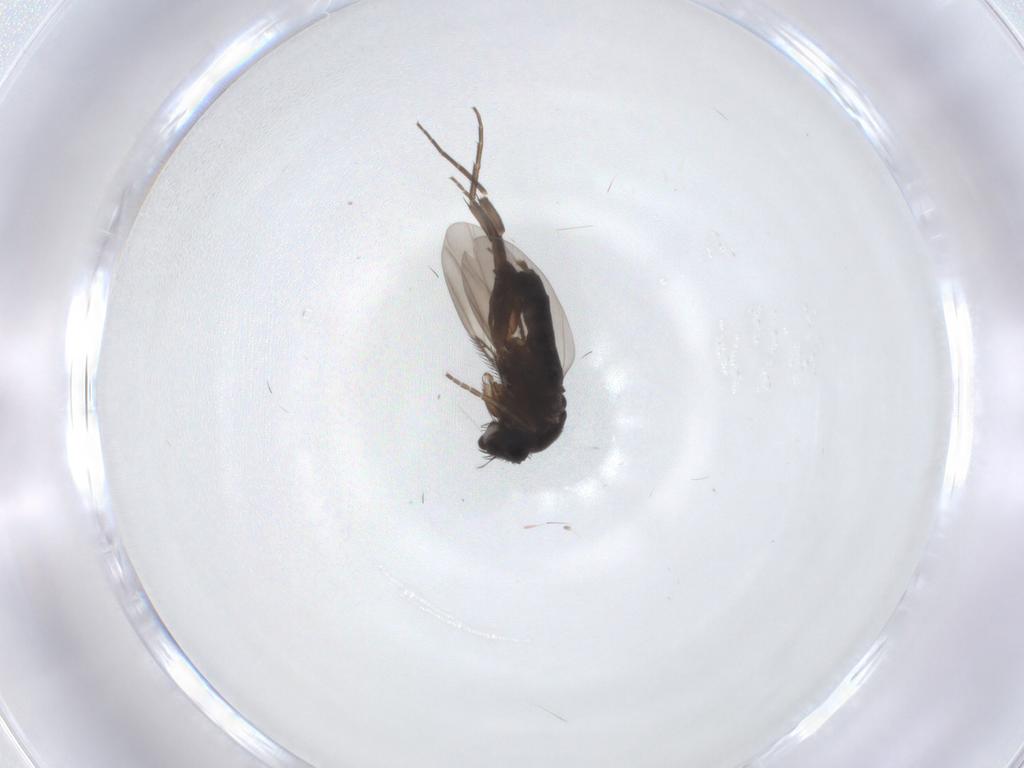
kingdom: Animalia
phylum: Arthropoda
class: Insecta
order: Diptera
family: Phoridae
